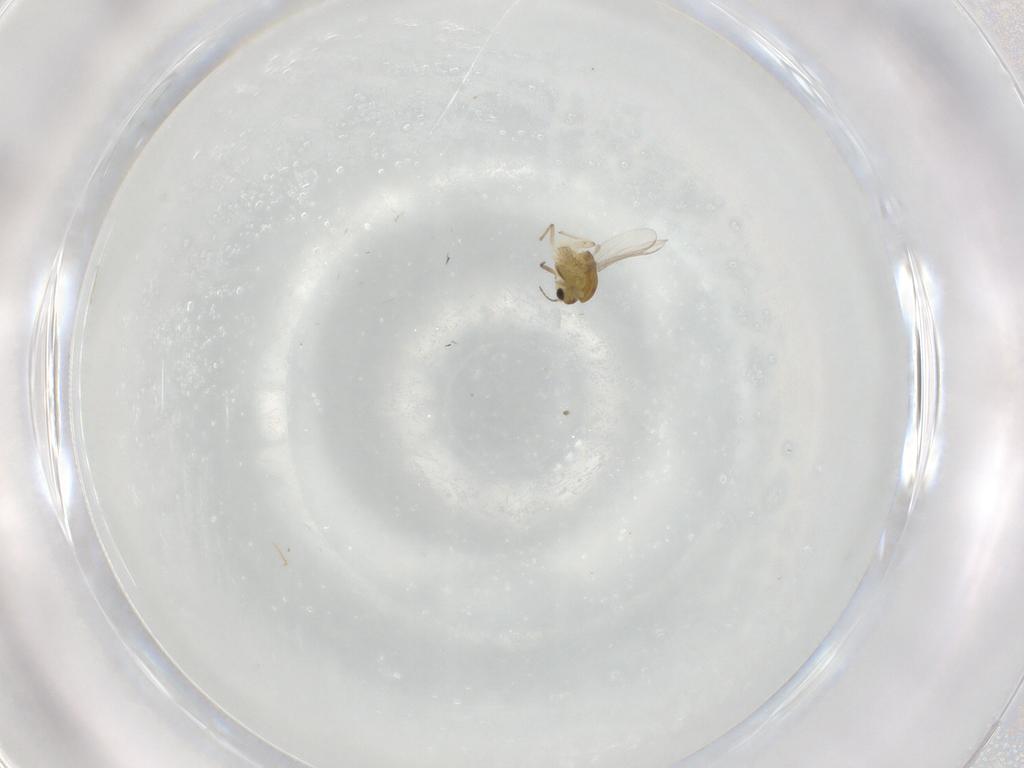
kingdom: Animalia
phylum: Arthropoda
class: Insecta
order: Diptera
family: Chironomidae
